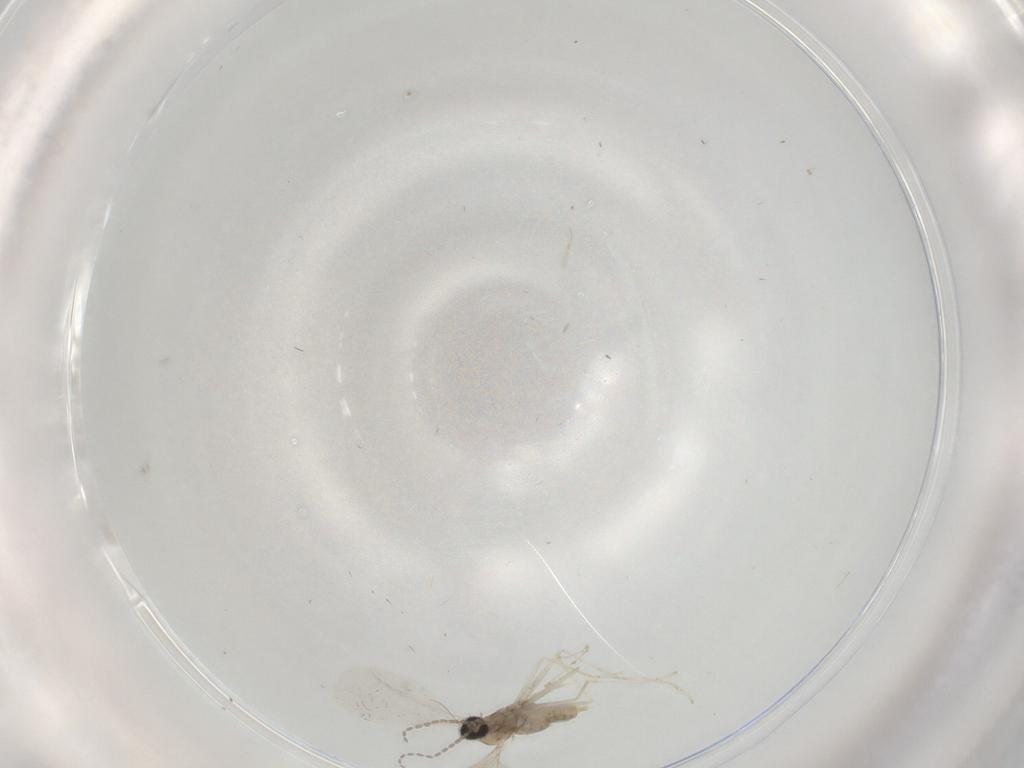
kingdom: Animalia
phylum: Arthropoda
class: Insecta
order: Diptera
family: Cecidomyiidae
